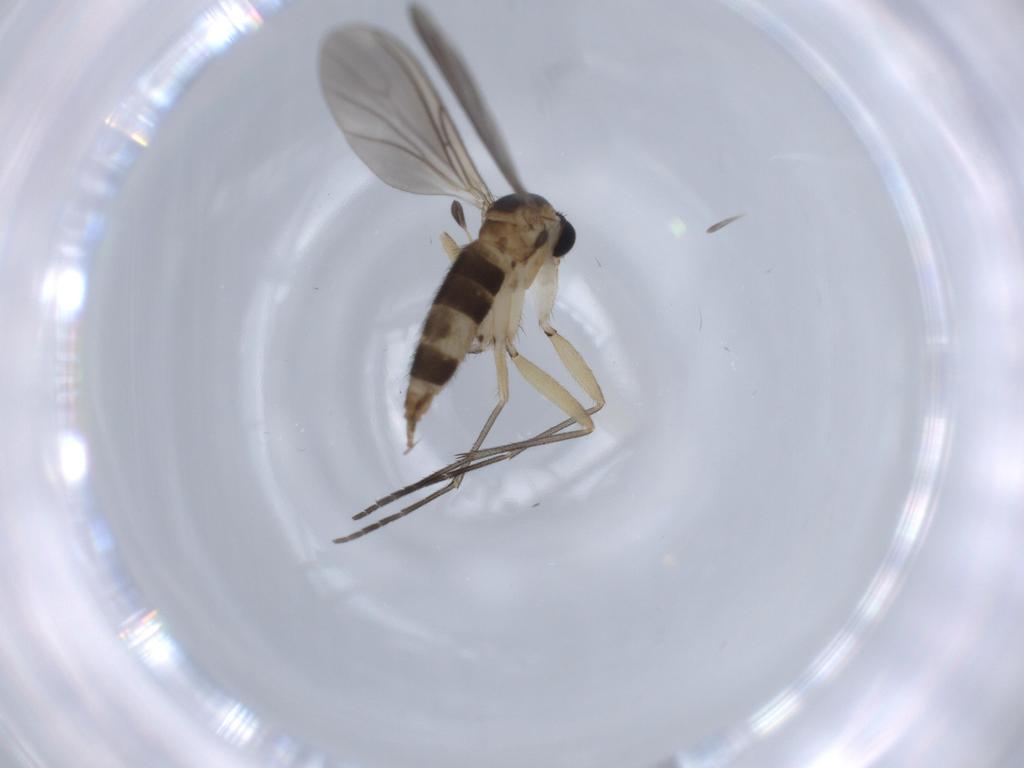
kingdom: Animalia
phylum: Arthropoda
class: Insecta
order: Diptera
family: Sciaridae
